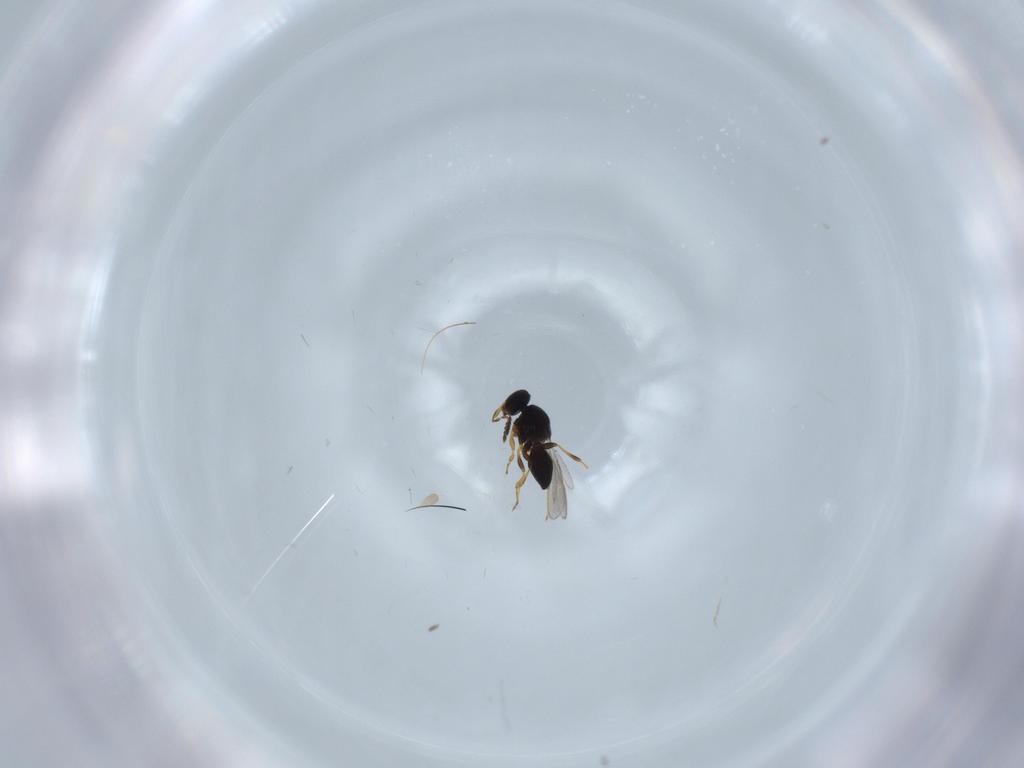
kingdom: Animalia
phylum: Arthropoda
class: Insecta
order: Hymenoptera
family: Platygastridae
